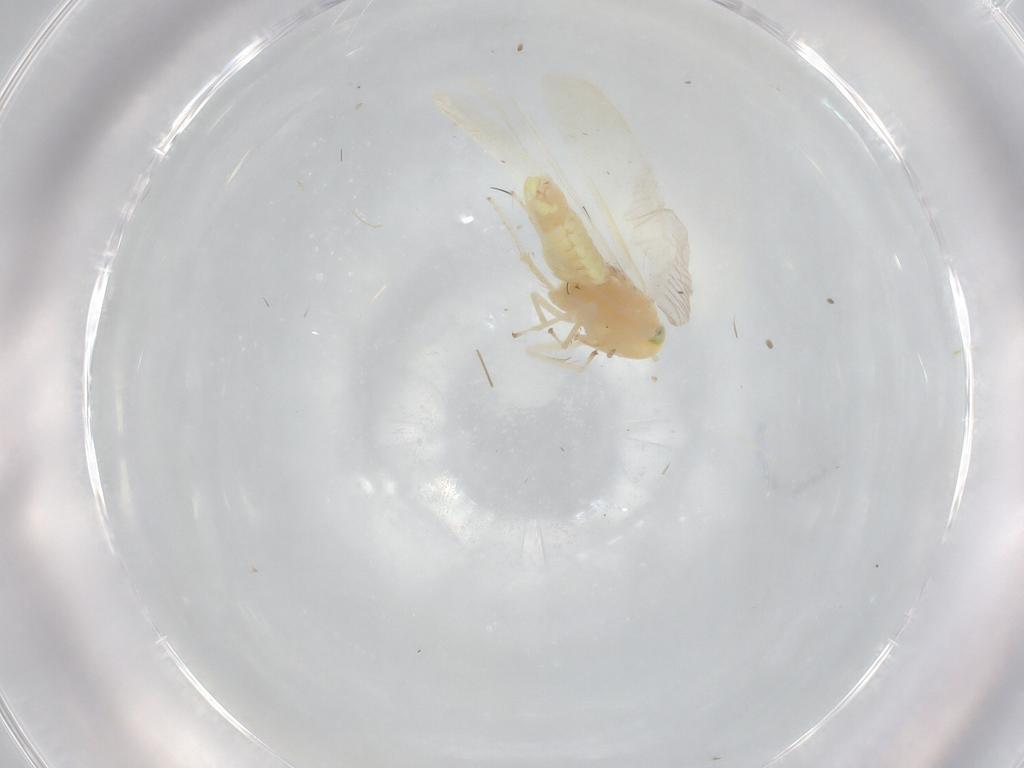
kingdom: Animalia
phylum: Arthropoda
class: Insecta
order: Hemiptera
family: Cicadellidae
